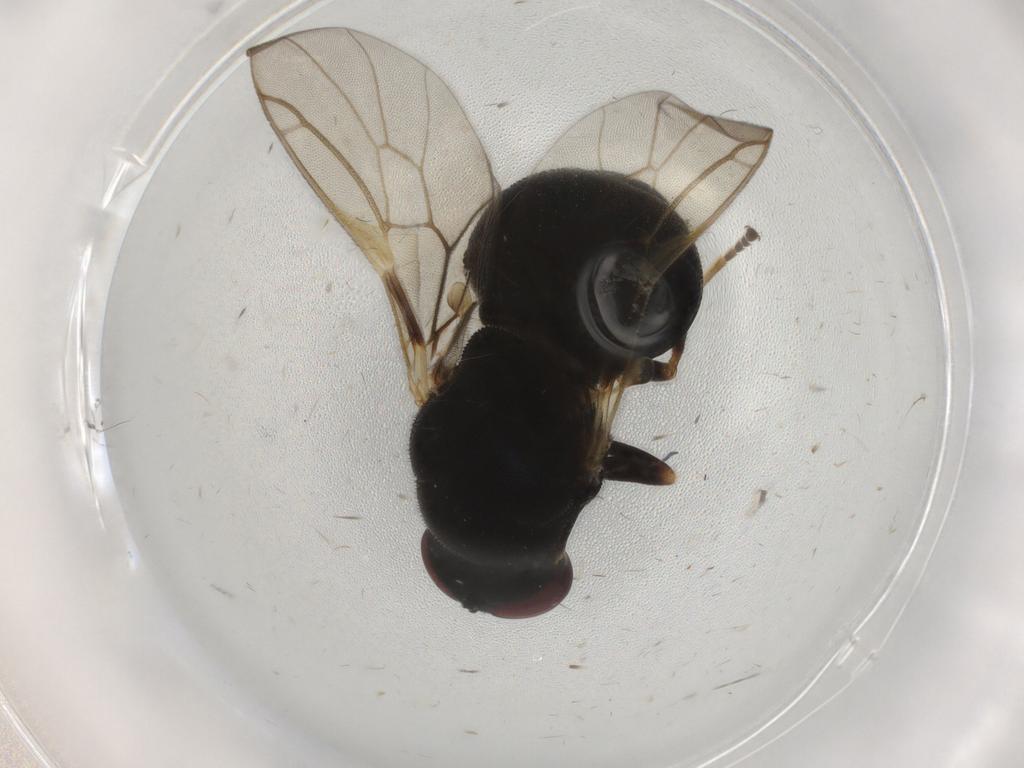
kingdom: Animalia
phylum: Arthropoda
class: Insecta
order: Diptera
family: Stratiomyidae
